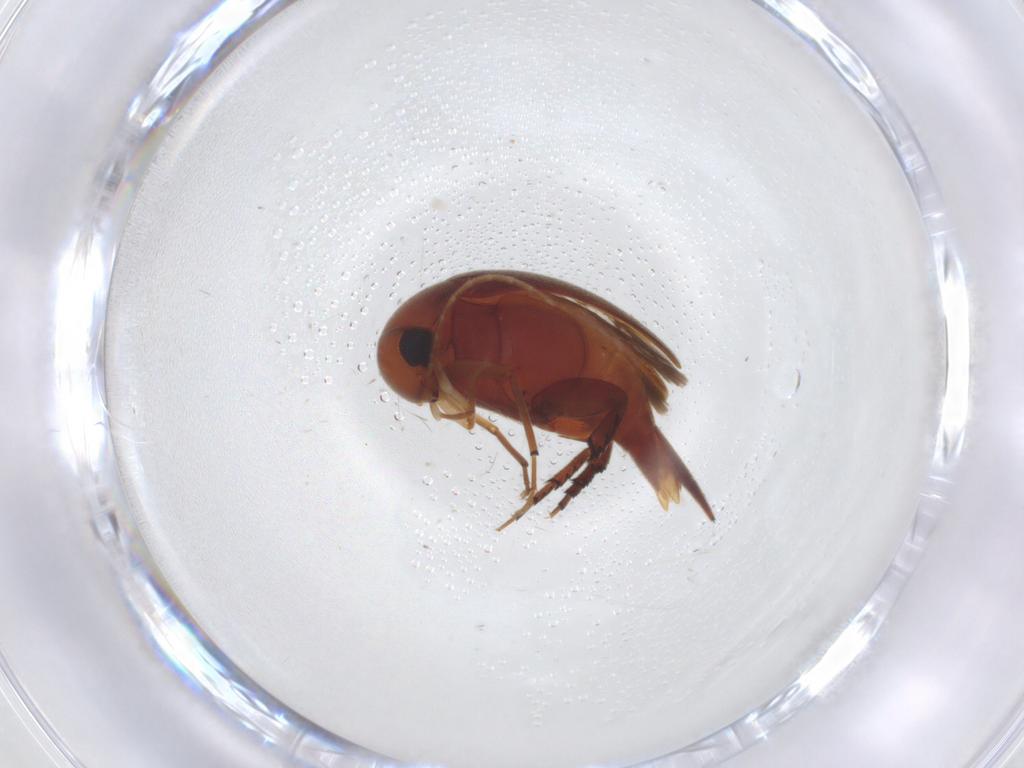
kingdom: Animalia
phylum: Arthropoda
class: Insecta
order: Coleoptera
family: Mordellidae
